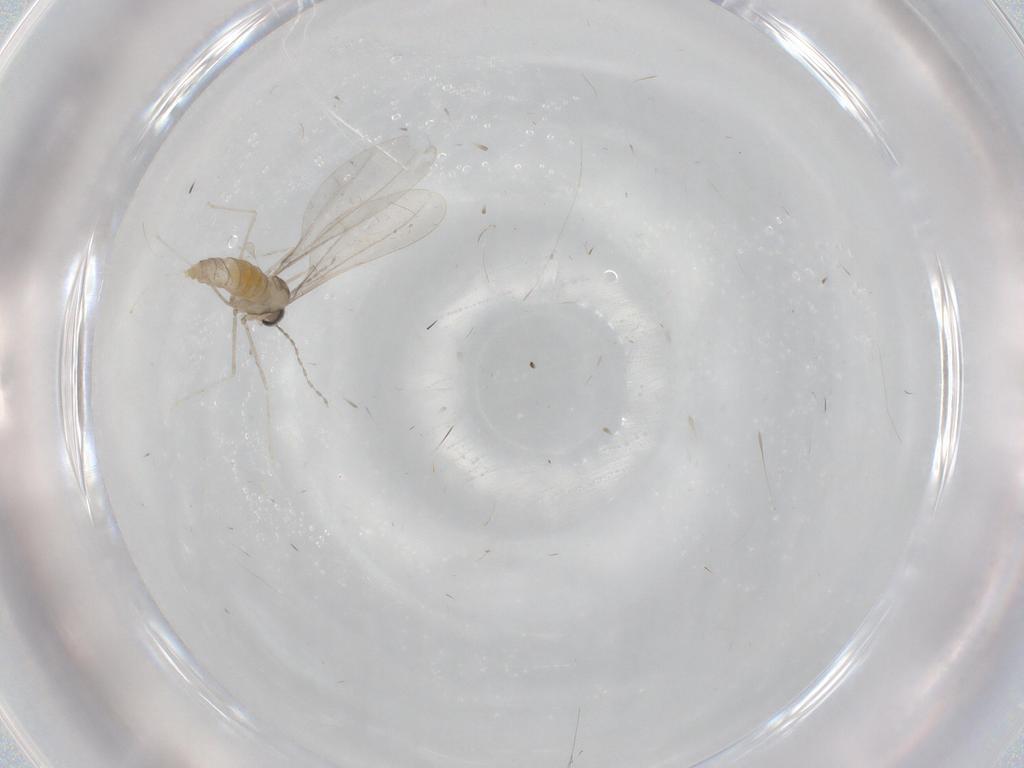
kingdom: Animalia
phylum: Arthropoda
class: Insecta
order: Diptera
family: Cecidomyiidae
